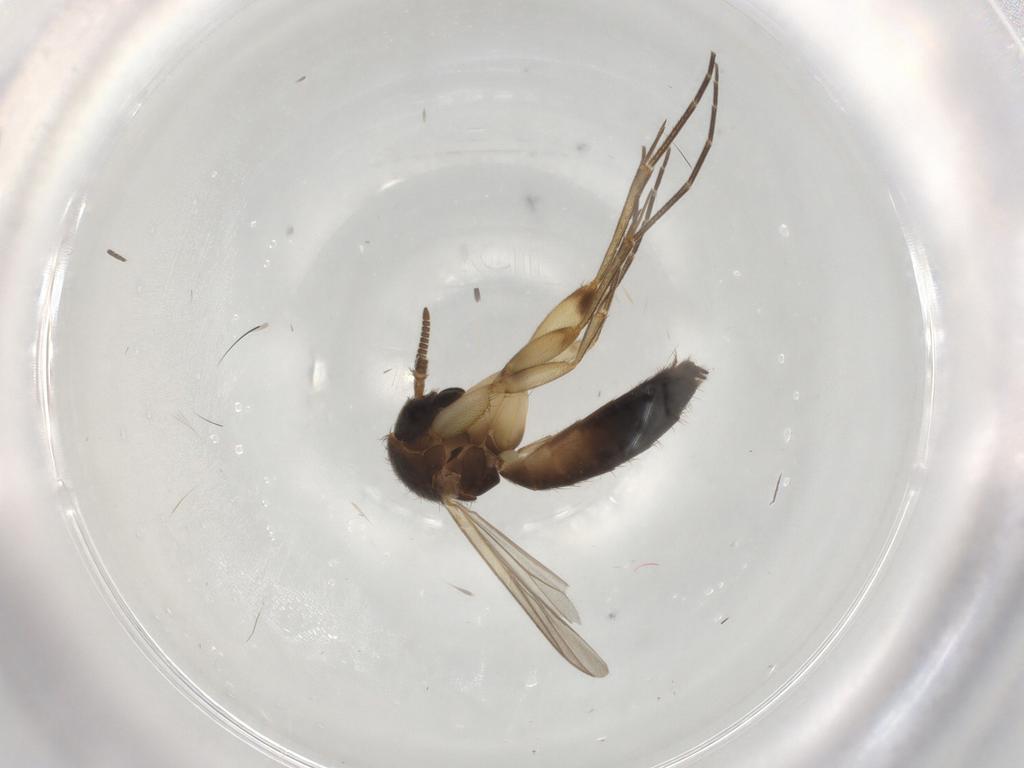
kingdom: Animalia
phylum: Arthropoda
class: Insecta
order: Diptera
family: Mycetophilidae
